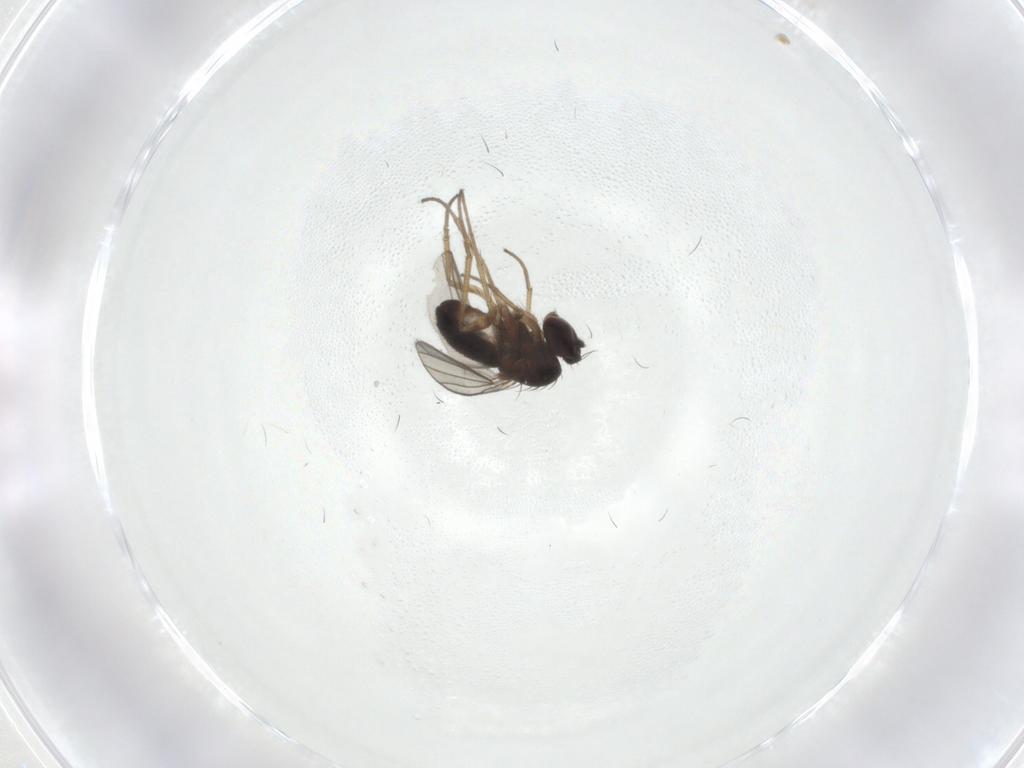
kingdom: Animalia
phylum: Arthropoda
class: Insecta
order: Diptera
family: Dolichopodidae
